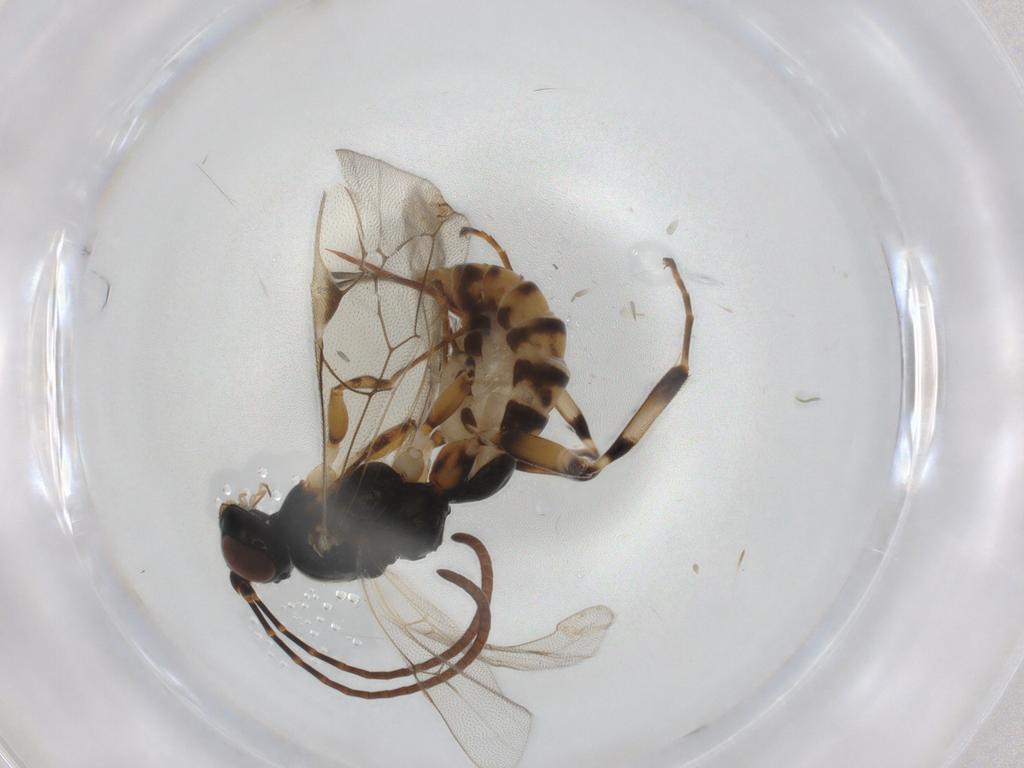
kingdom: Animalia
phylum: Arthropoda
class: Insecta
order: Hymenoptera
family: Ichneumonidae
